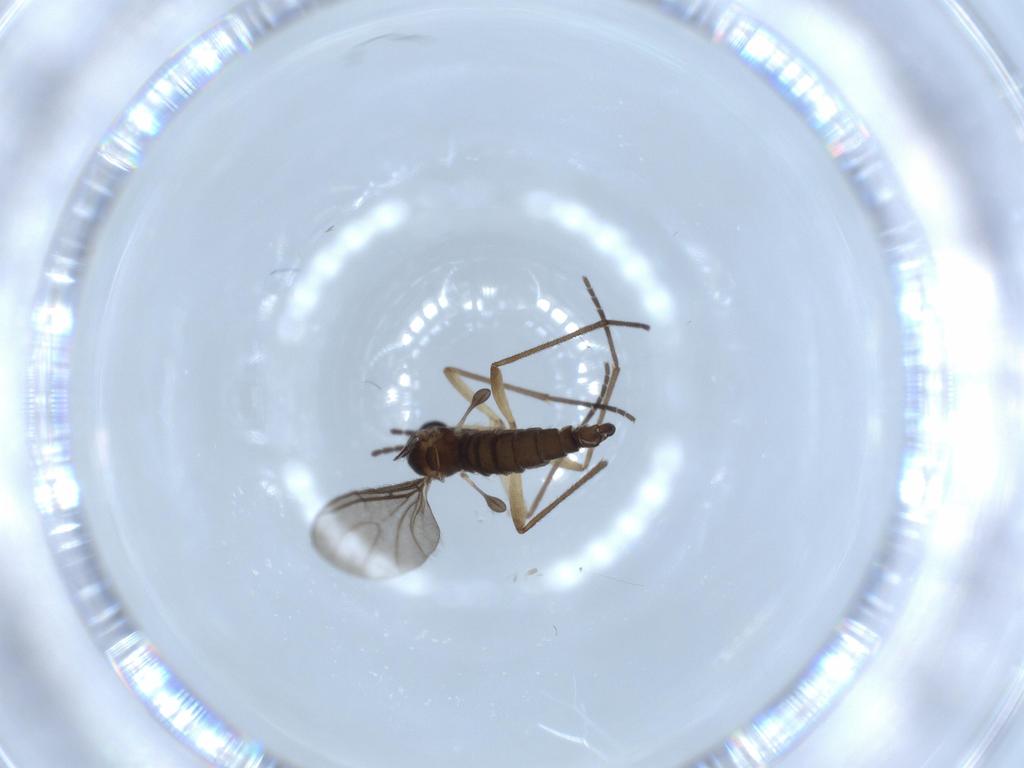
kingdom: Animalia
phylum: Arthropoda
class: Insecta
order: Diptera
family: Sciaridae
